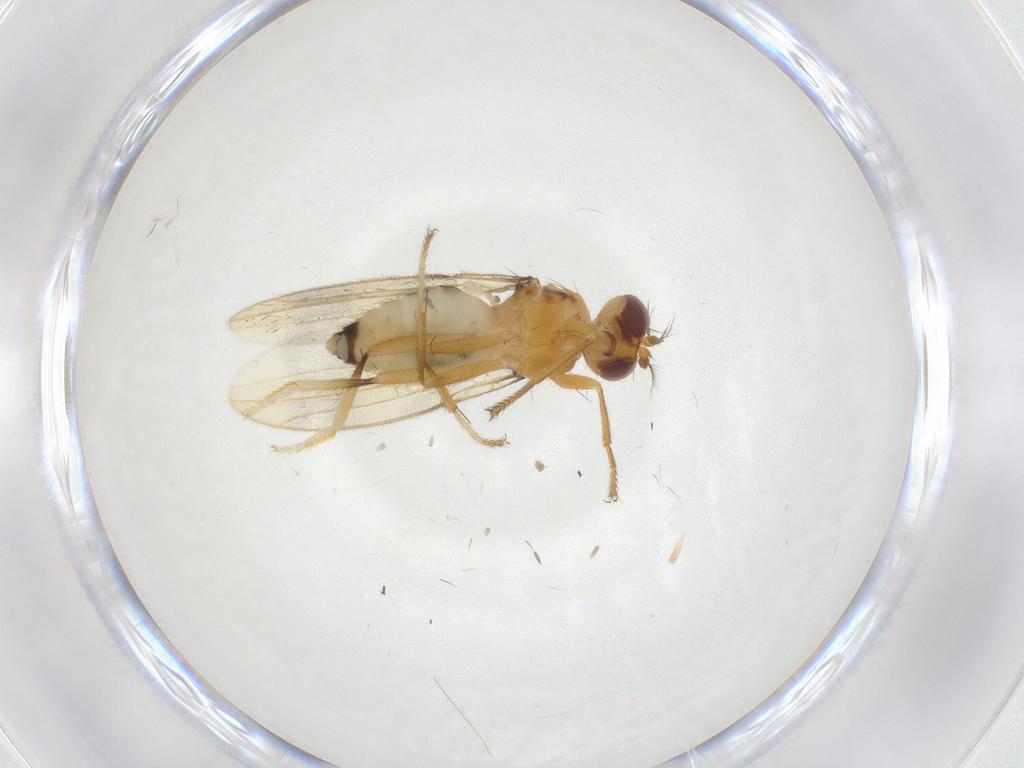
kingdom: Animalia
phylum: Arthropoda
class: Insecta
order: Diptera
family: Periscelididae
